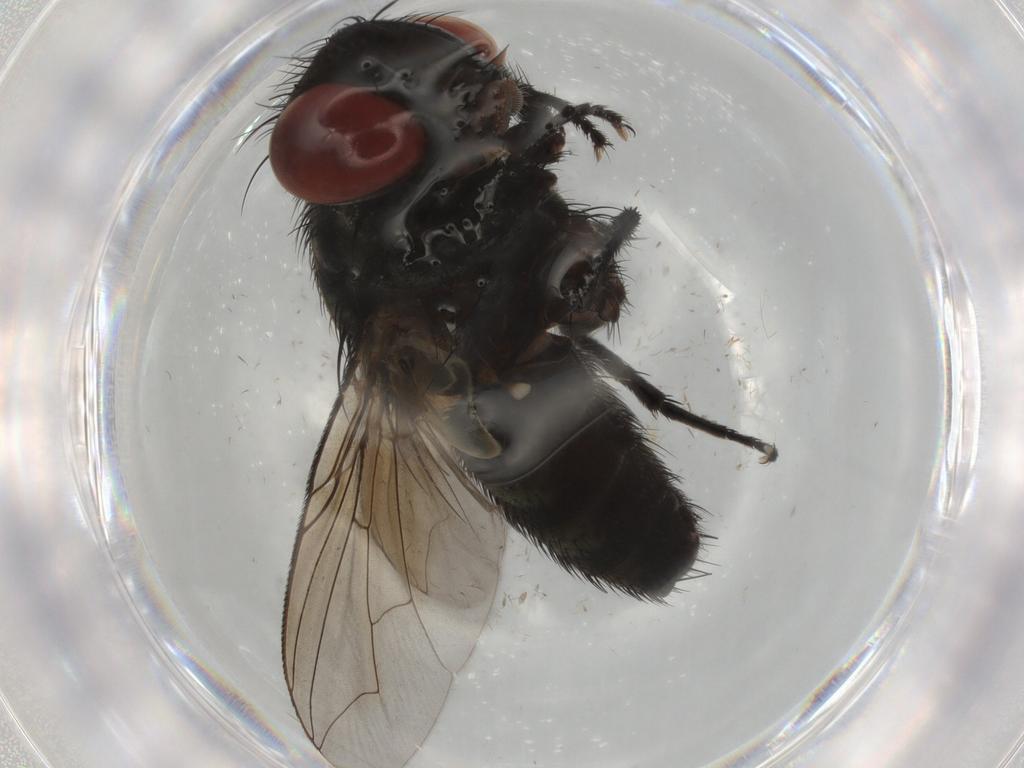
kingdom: Animalia
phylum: Arthropoda
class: Insecta
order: Diptera
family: Sarcophagidae
